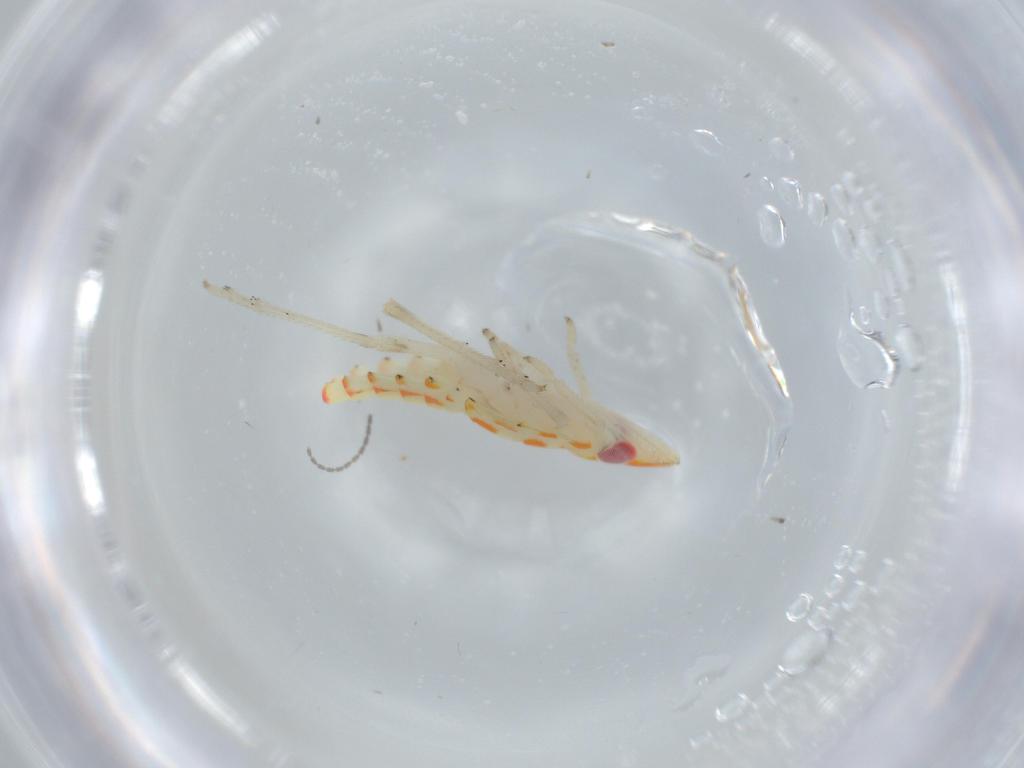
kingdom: Animalia
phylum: Arthropoda
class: Insecta
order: Hemiptera
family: Tropiduchidae
